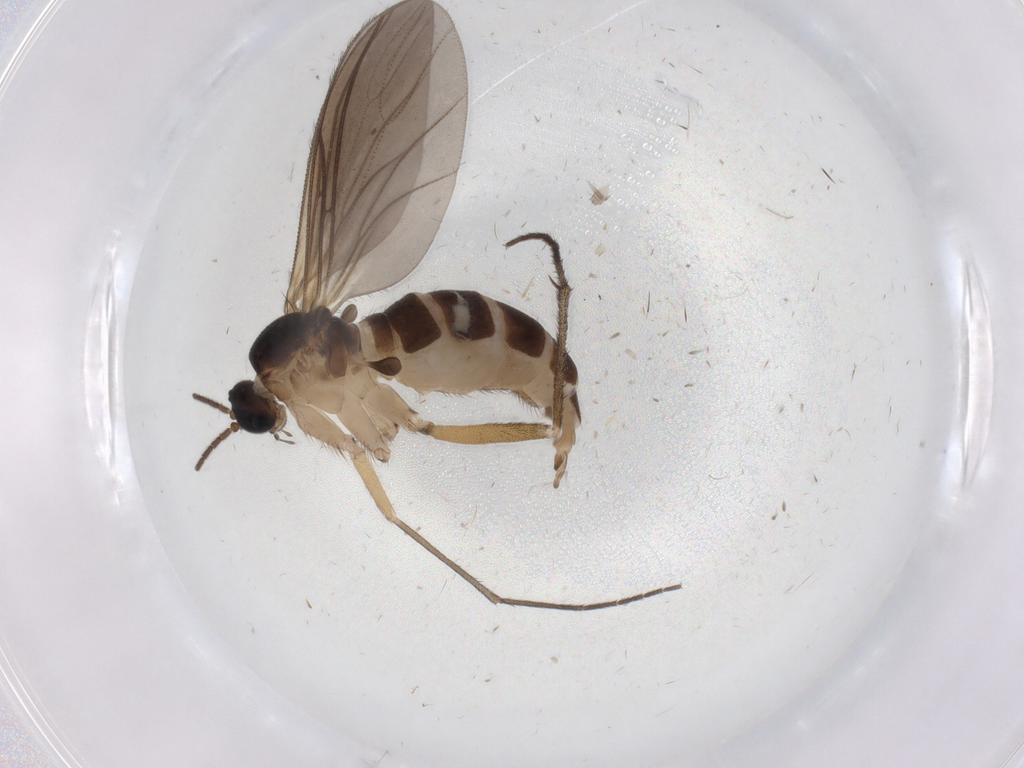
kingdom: Animalia
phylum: Arthropoda
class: Insecta
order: Diptera
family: Sciaridae
